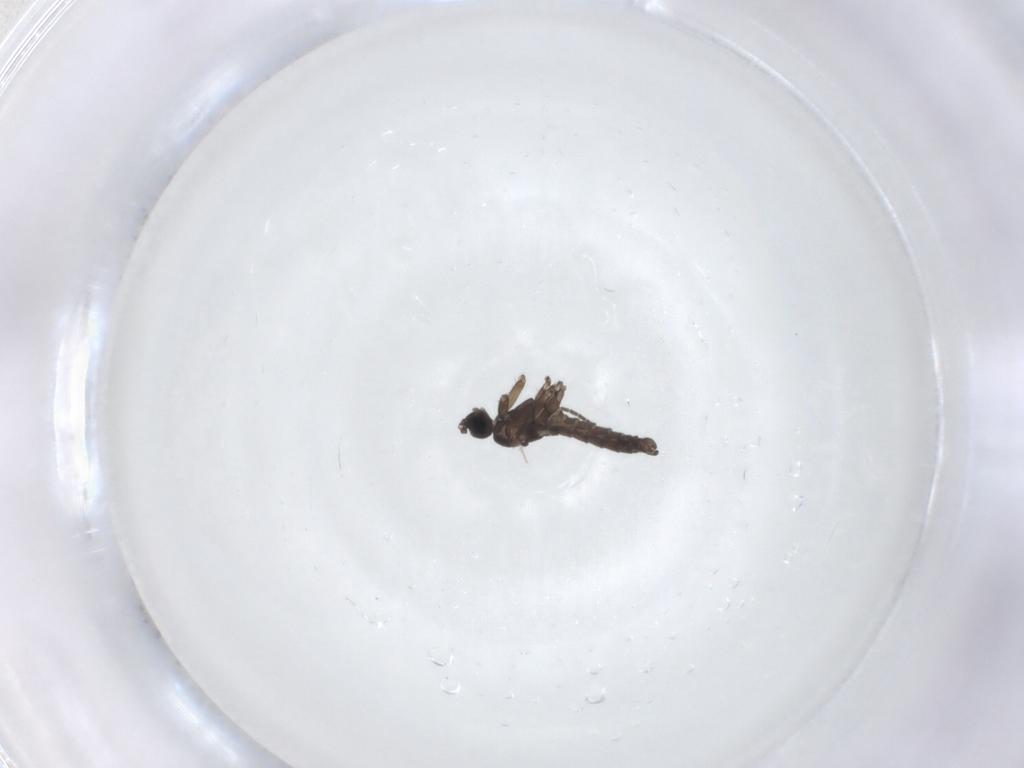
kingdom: Animalia
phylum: Arthropoda
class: Insecta
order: Diptera
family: Sciaridae
